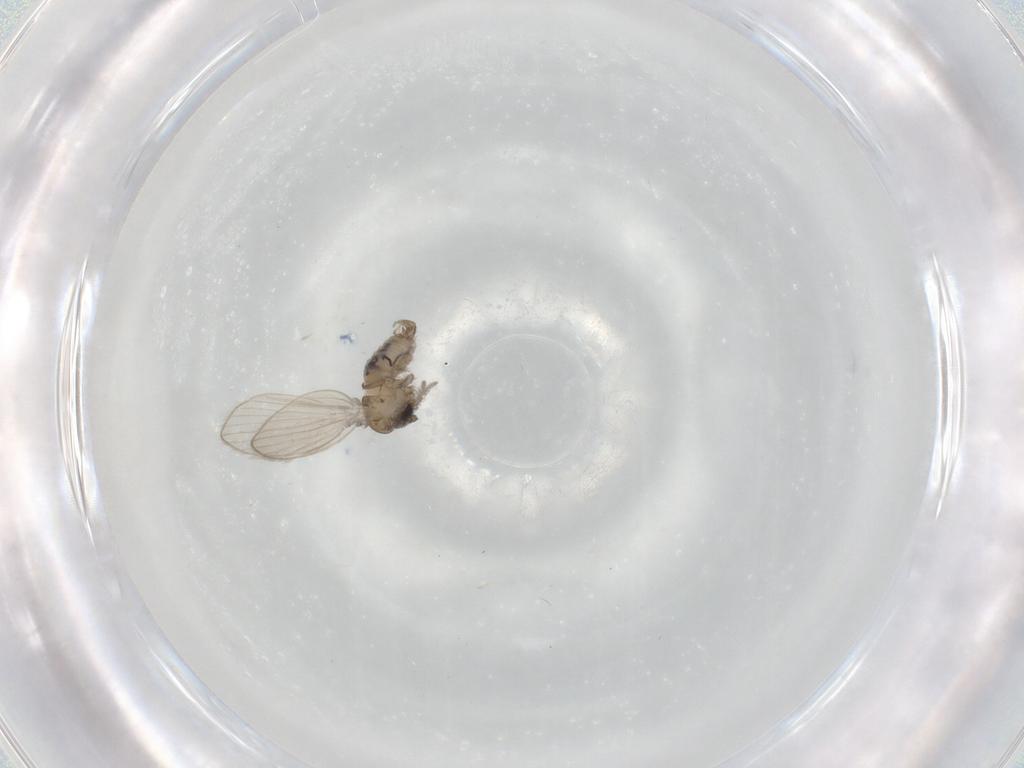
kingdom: Animalia
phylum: Arthropoda
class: Insecta
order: Diptera
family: Psychodidae
